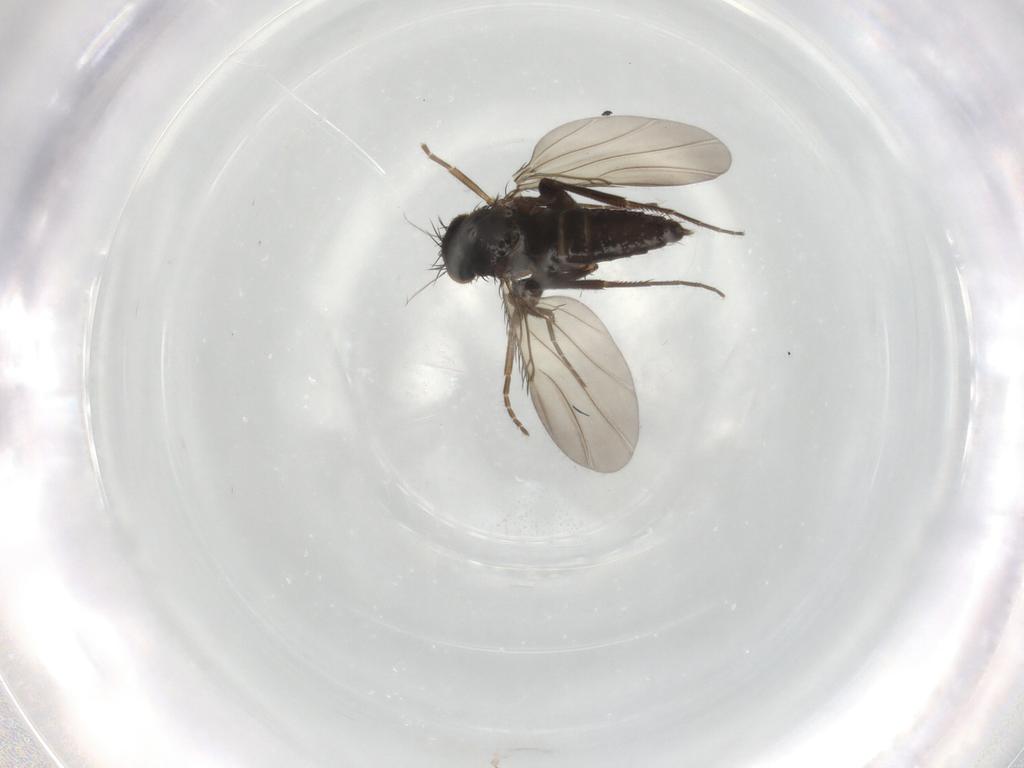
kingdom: Animalia
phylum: Arthropoda
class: Insecta
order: Diptera
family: Phoridae
